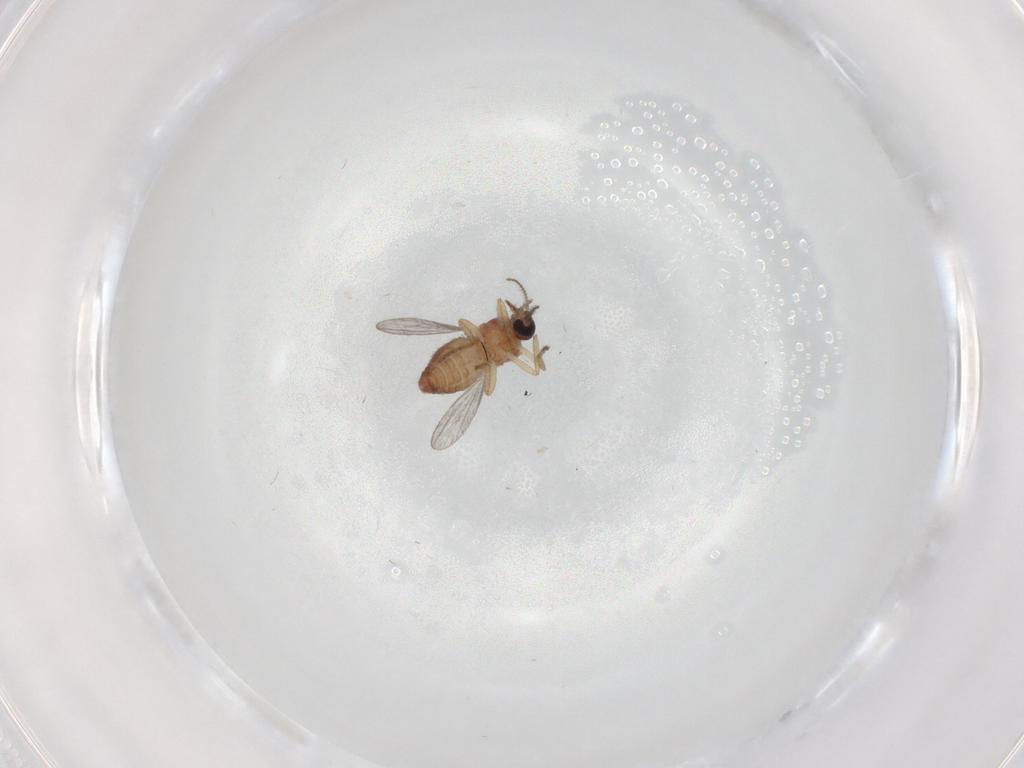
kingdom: Animalia
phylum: Arthropoda
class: Insecta
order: Diptera
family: Ceratopogonidae
